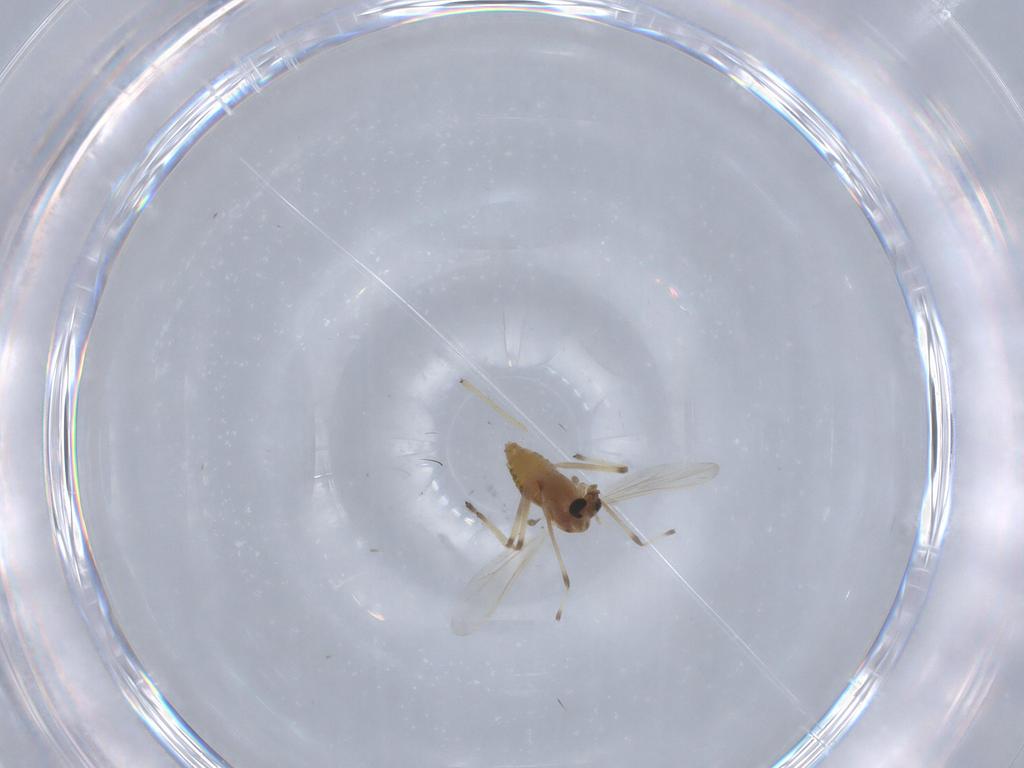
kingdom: Animalia
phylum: Arthropoda
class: Insecta
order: Diptera
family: Chironomidae
